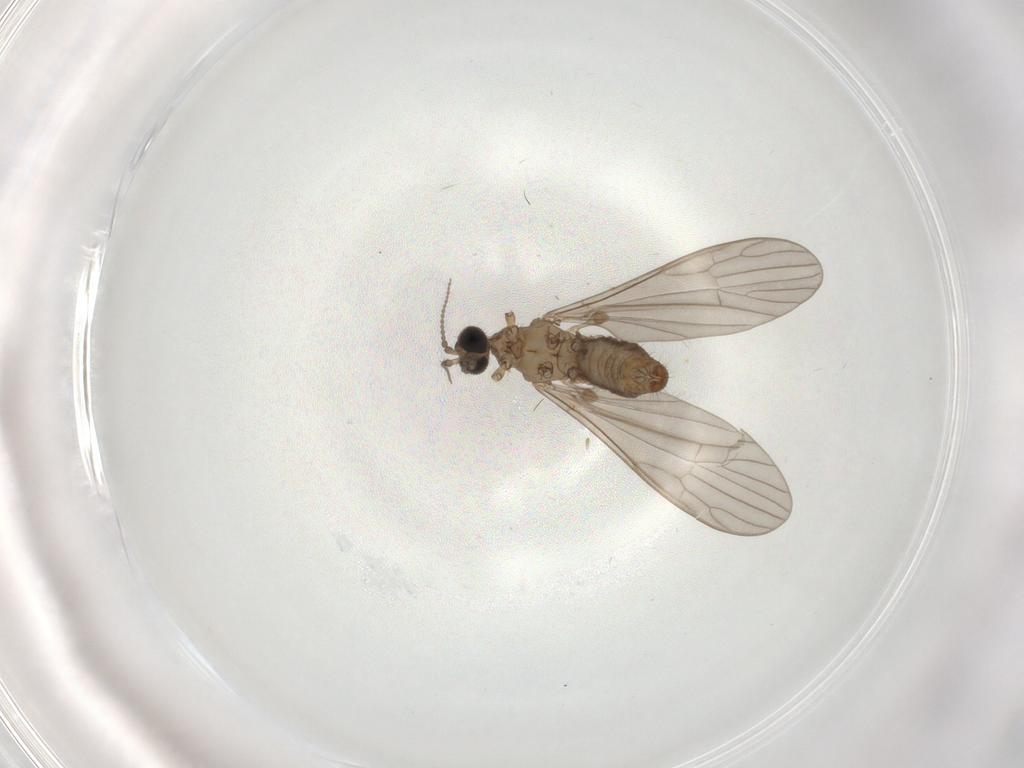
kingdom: Animalia
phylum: Arthropoda
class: Insecta
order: Diptera
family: Limoniidae
